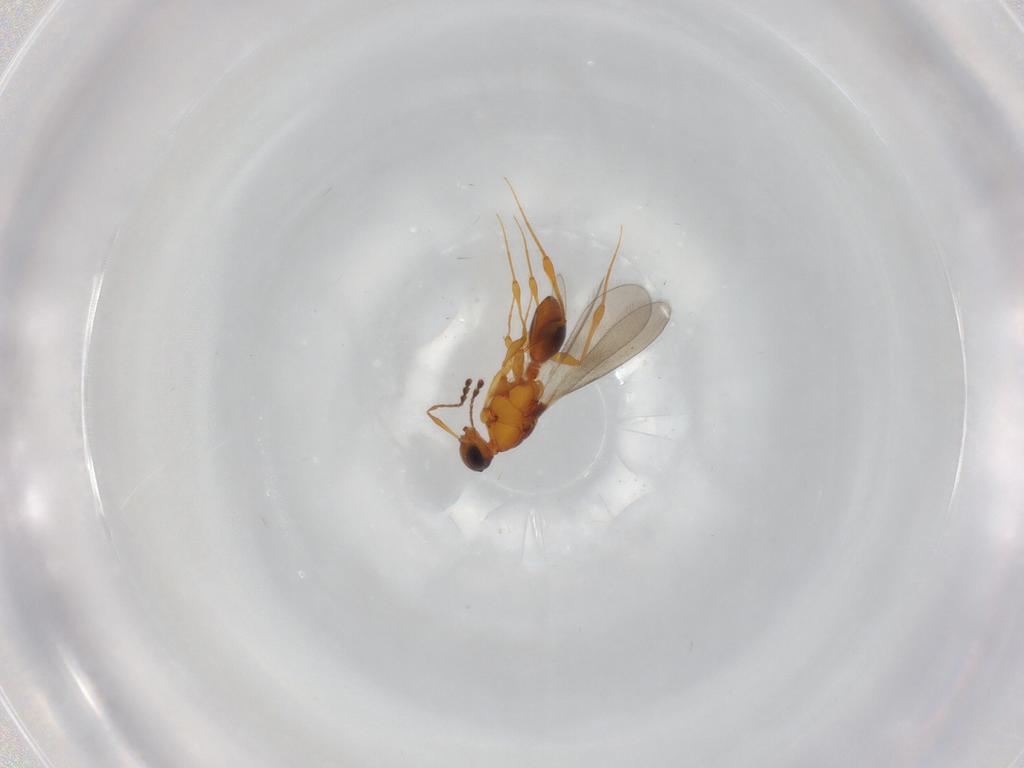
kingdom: Animalia
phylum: Arthropoda
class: Insecta
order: Hymenoptera
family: Platygastridae
